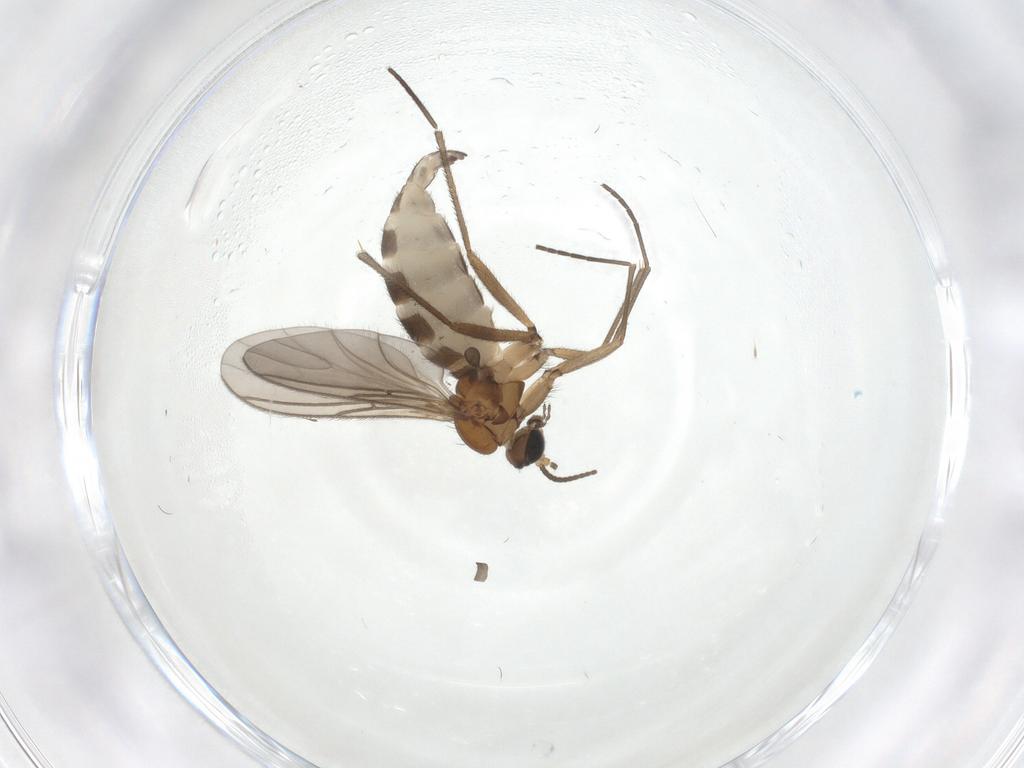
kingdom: Animalia
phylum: Arthropoda
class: Insecta
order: Diptera
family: Sciaridae
